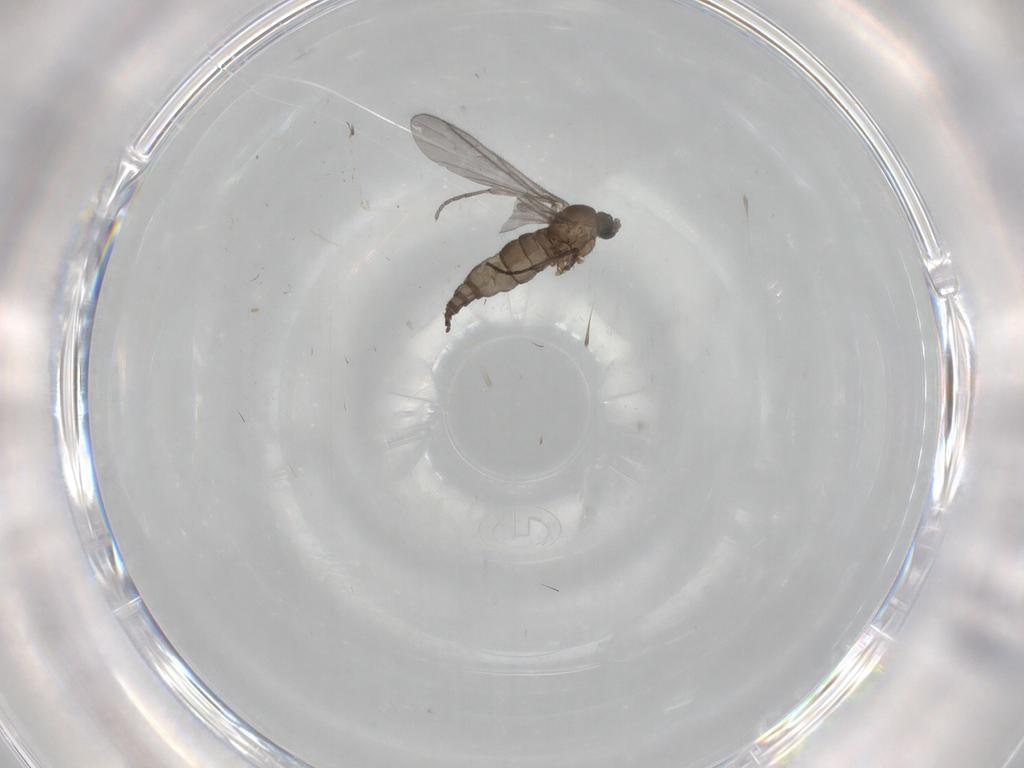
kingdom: Animalia
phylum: Arthropoda
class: Insecta
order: Diptera
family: Sciaridae
